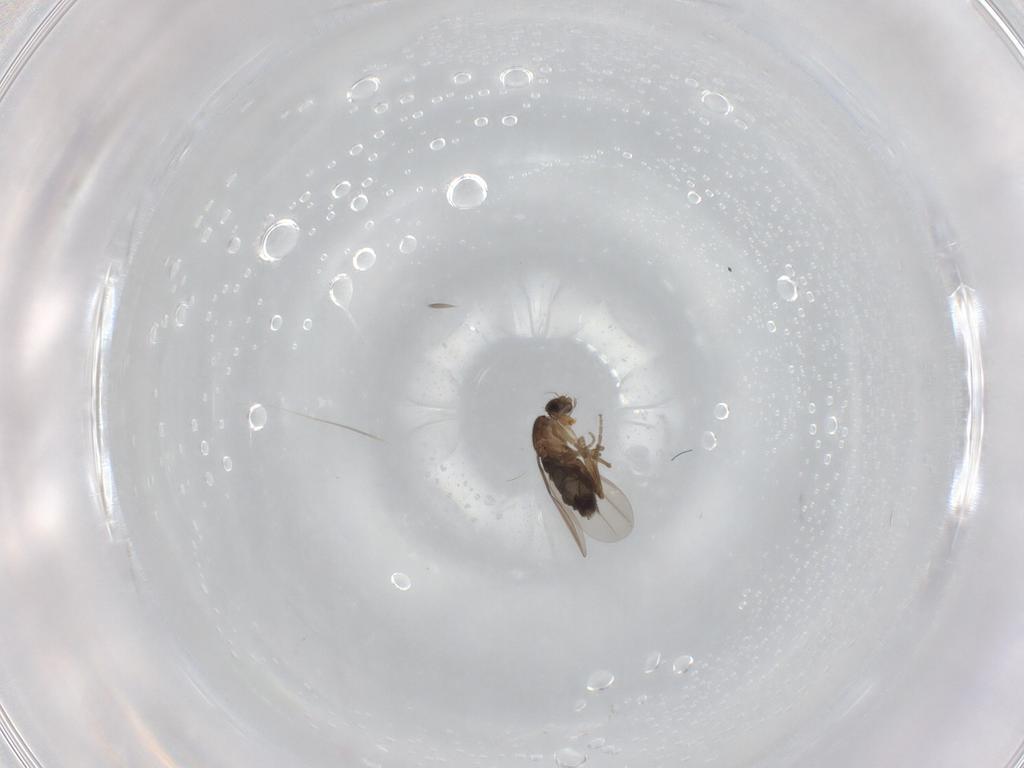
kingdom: Animalia
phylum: Arthropoda
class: Insecta
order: Diptera
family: Phoridae
